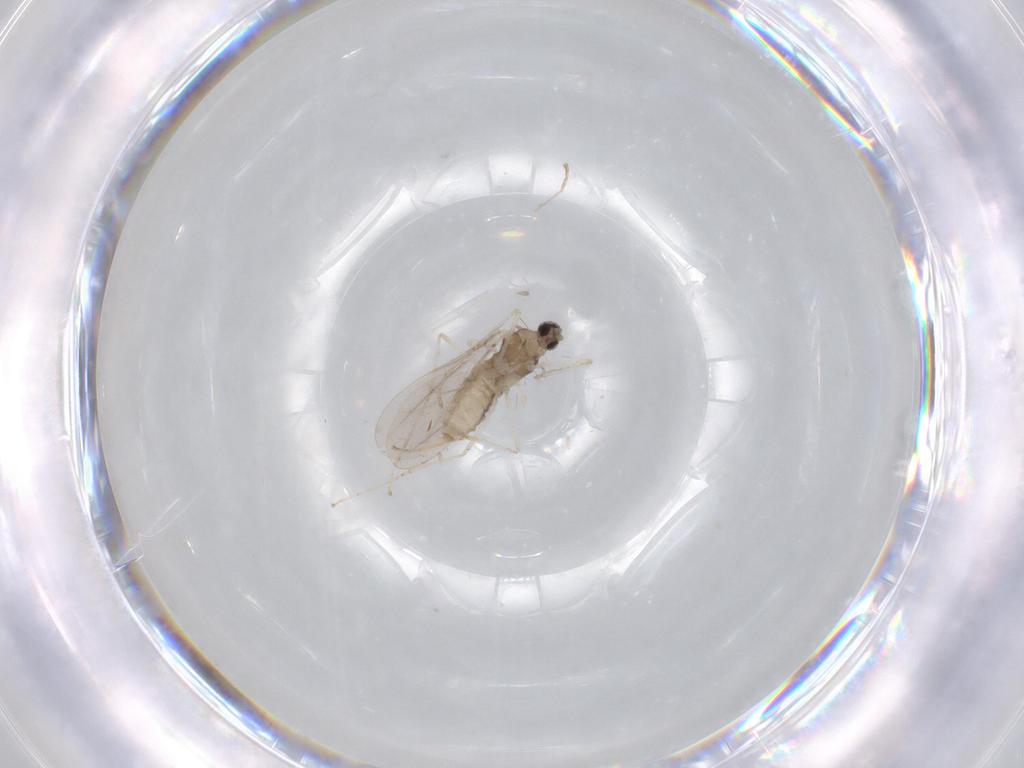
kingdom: Animalia
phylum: Arthropoda
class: Insecta
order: Diptera
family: Cecidomyiidae
